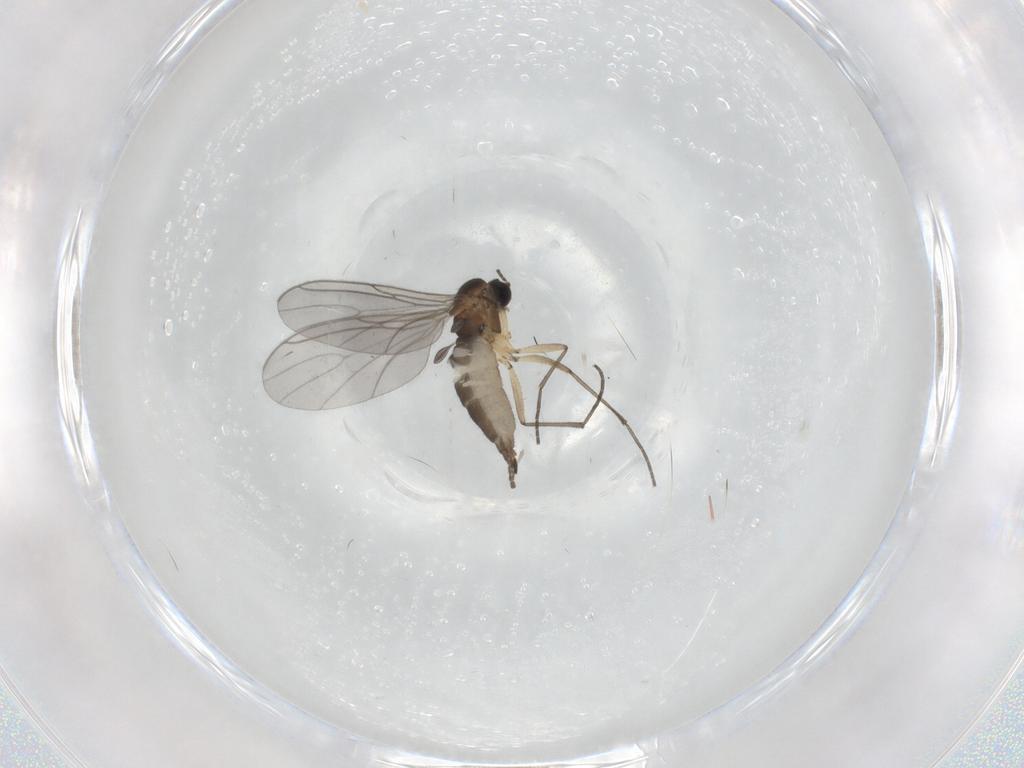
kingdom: Animalia
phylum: Arthropoda
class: Insecta
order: Diptera
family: Sciaridae
